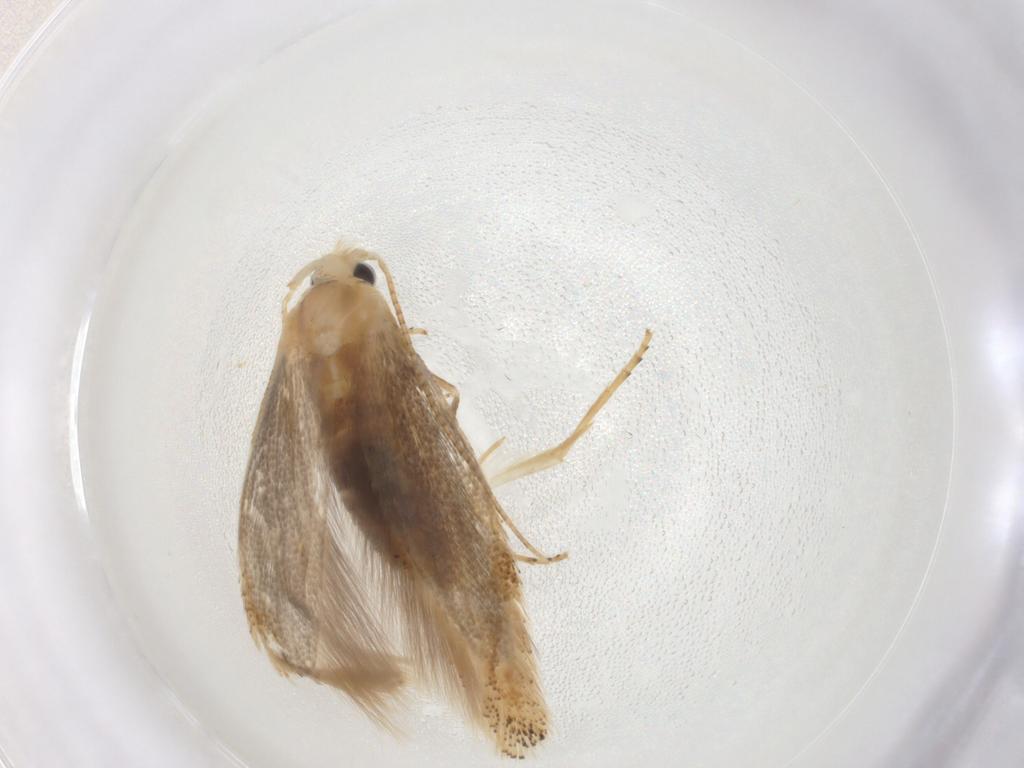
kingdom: Animalia
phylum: Arthropoda
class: Insecta
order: Lepidoptera
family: Bucculatricidae
